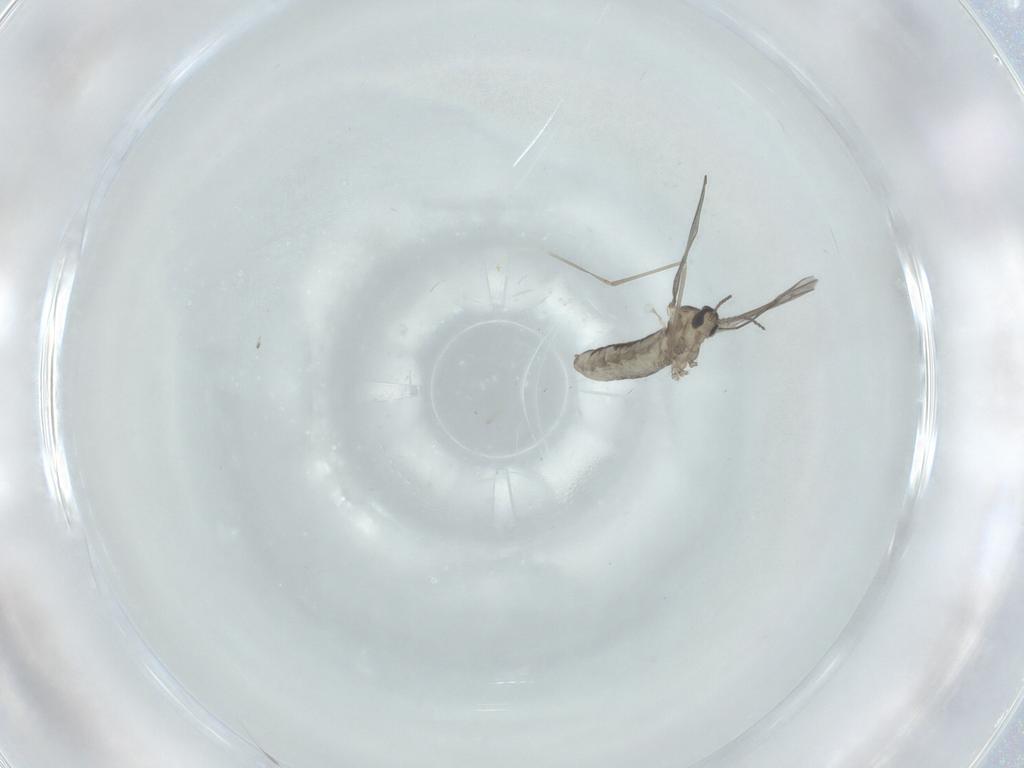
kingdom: Animalia
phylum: Arthropoda
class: Insecta
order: Diptera
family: Cecidomyiidae
